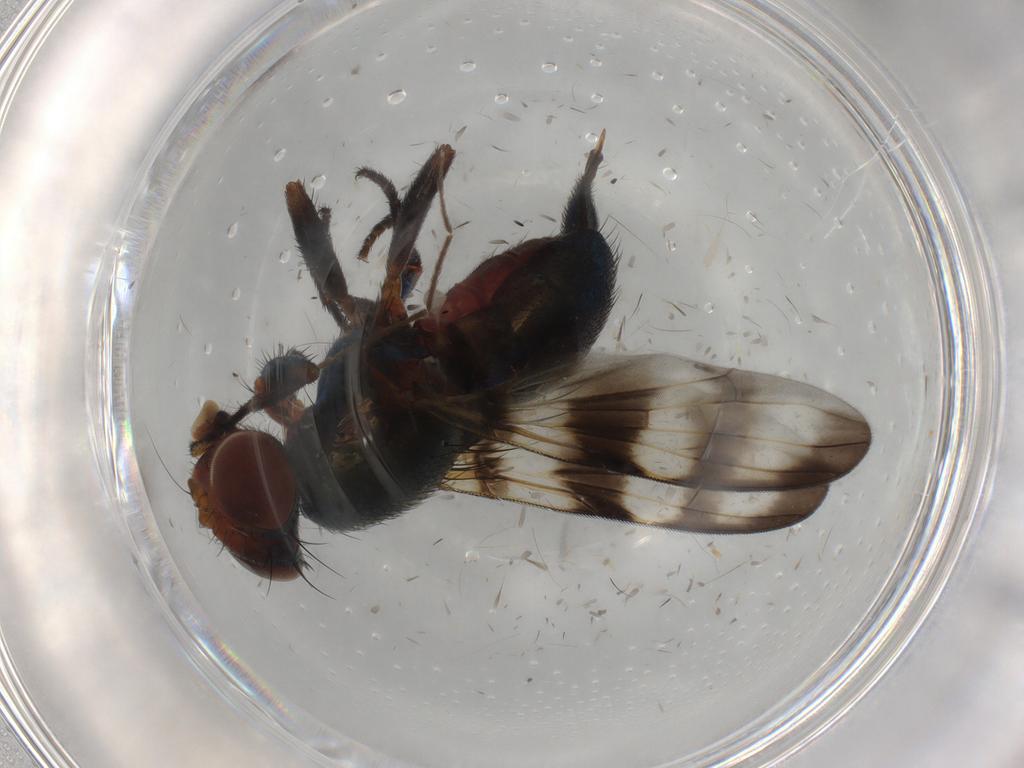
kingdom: Animalia
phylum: Arthropoda
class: Insecta
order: Diptera
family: Chironomidae
